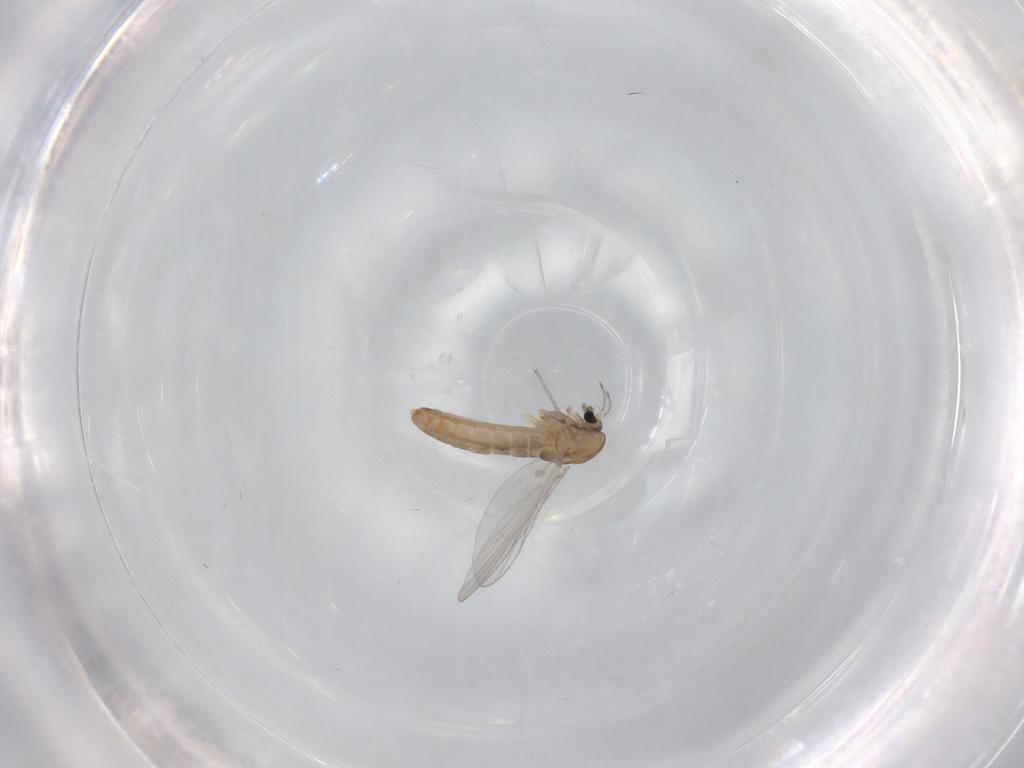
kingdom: Animalia
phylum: Arthropoda
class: Insecta
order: Diptera
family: Chironomidae
